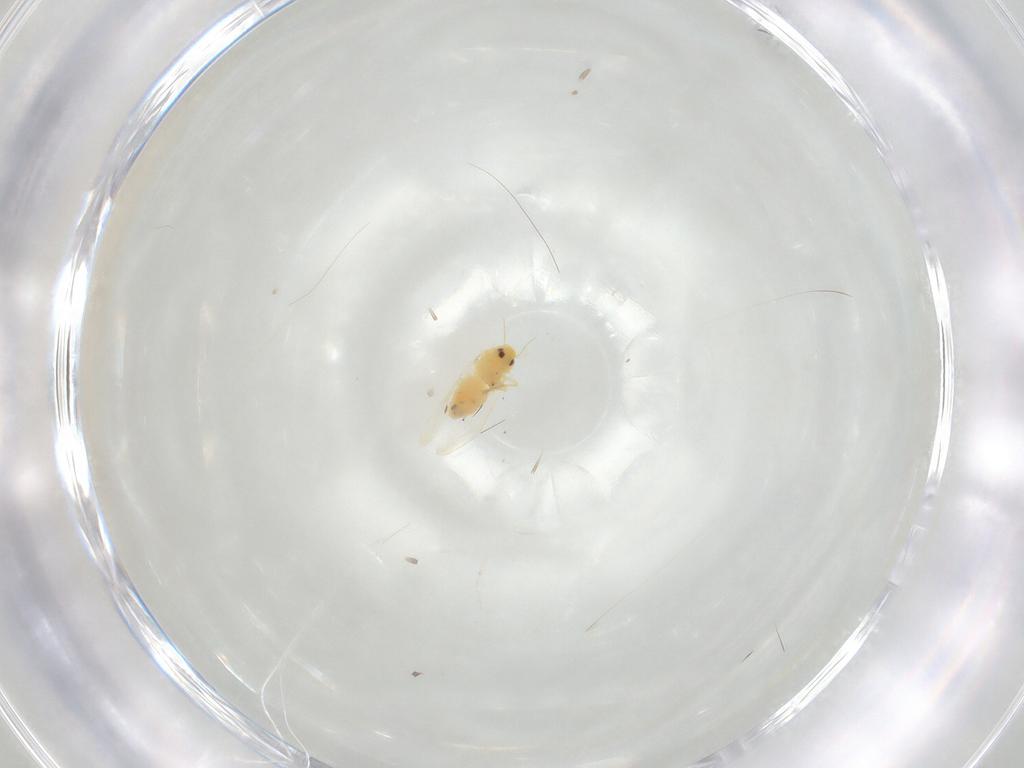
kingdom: Animalia
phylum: Arthropoda
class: Insecta
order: Hemiptera
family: Aleyrodidae
